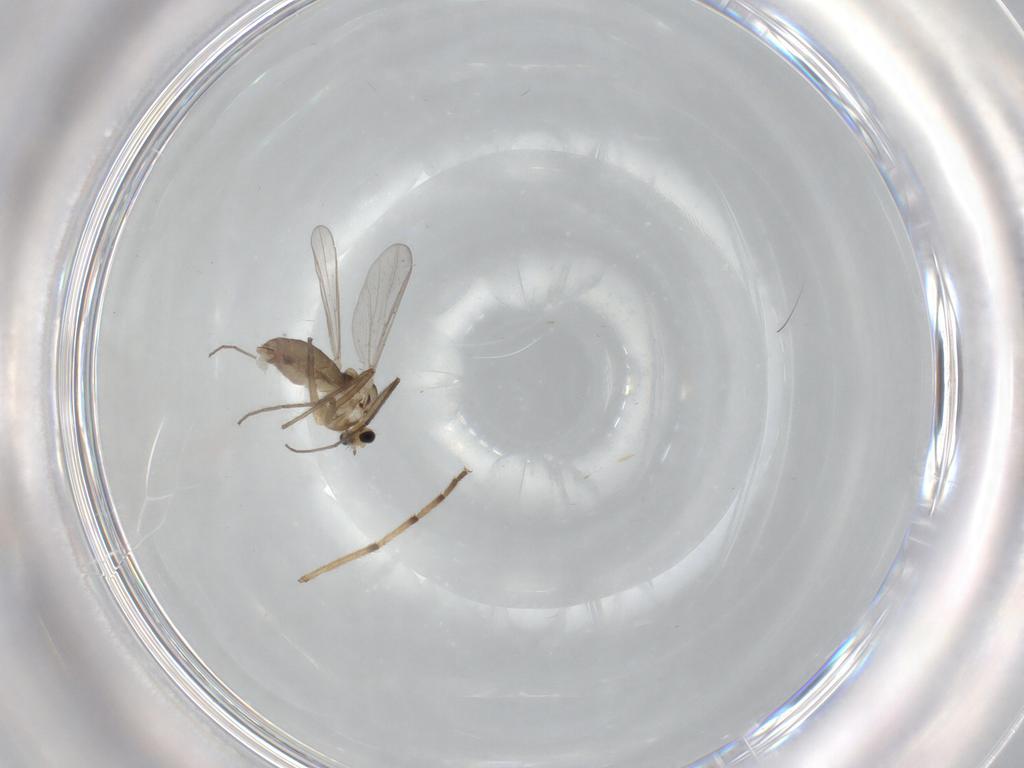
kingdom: Animalia
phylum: Arthropoda
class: Insecta
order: Diptera
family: Chironomidae
